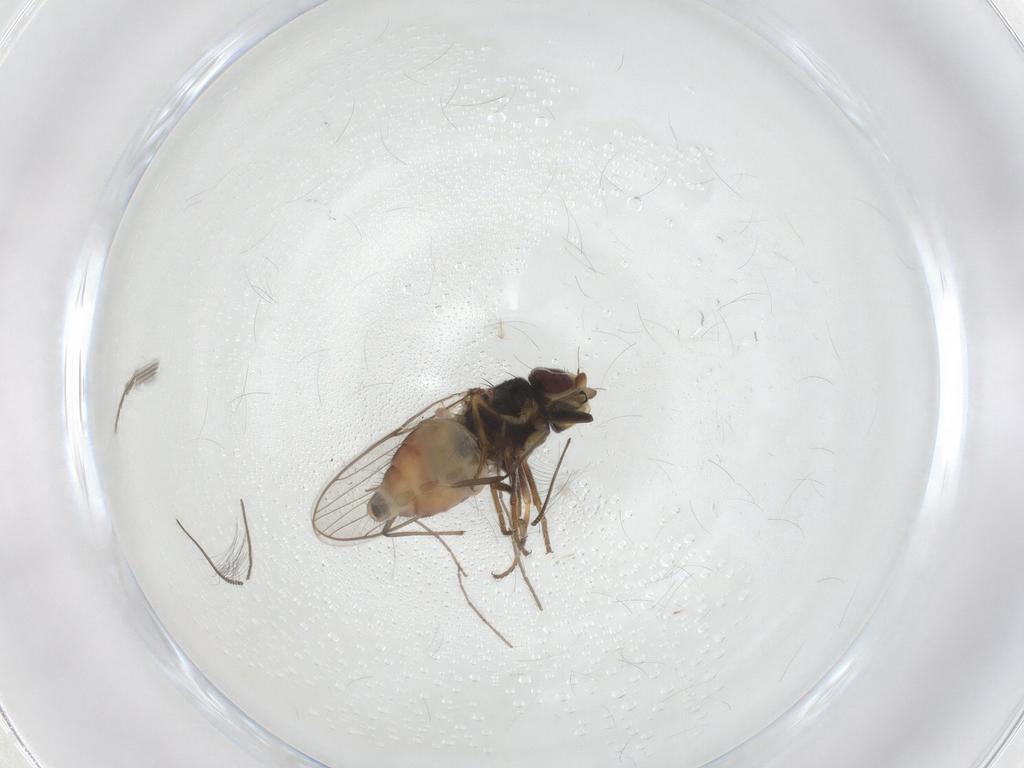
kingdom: Animalia
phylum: Arthropoda
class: Insecta
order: Diptera
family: Chloropidae
